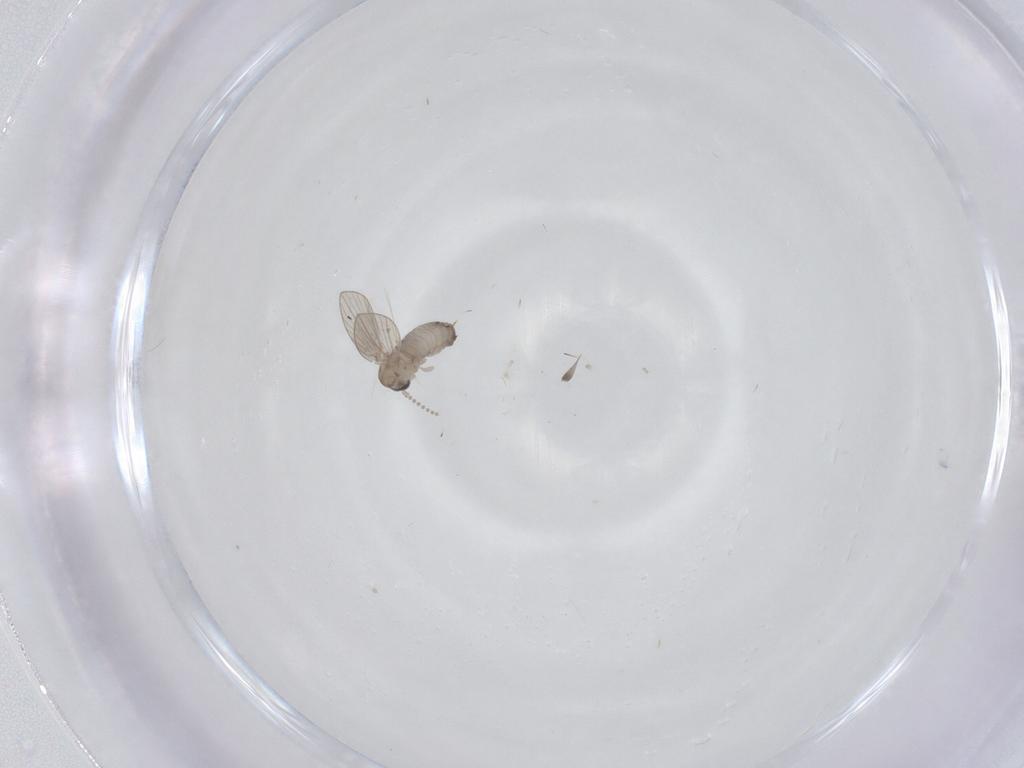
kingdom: Animalia
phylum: Arthropoda
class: Insecta
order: Diptera
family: Psychodidae
